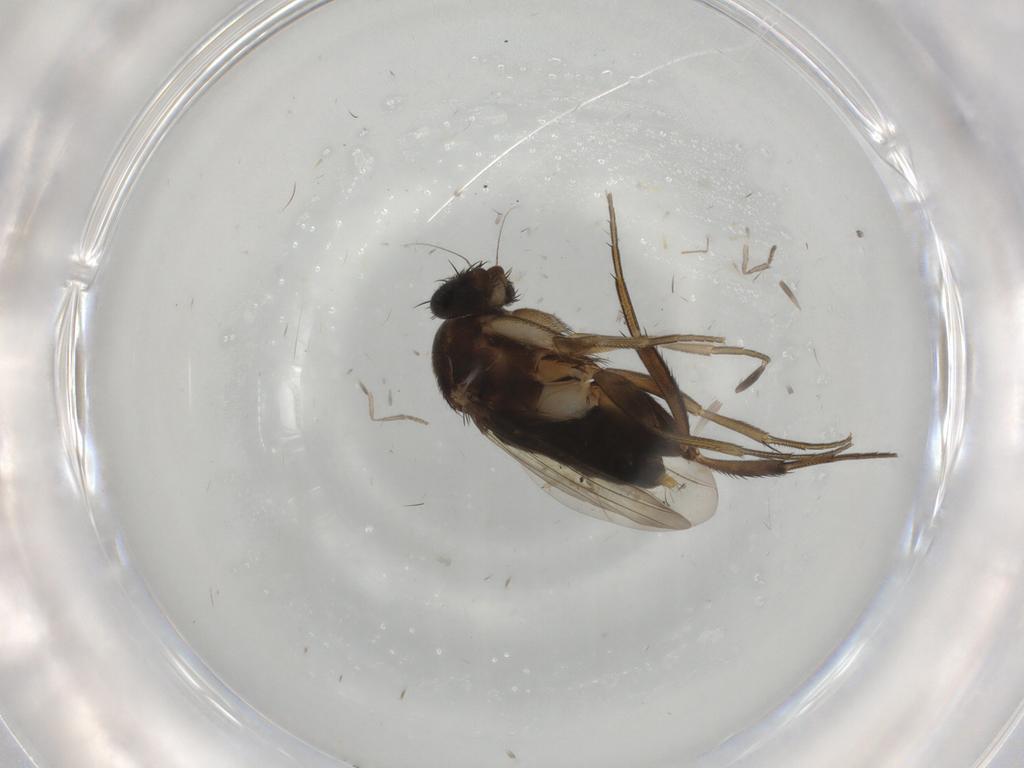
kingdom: Animalia
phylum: Arthropoda
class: Insecta
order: Diptera
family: Phoridae
